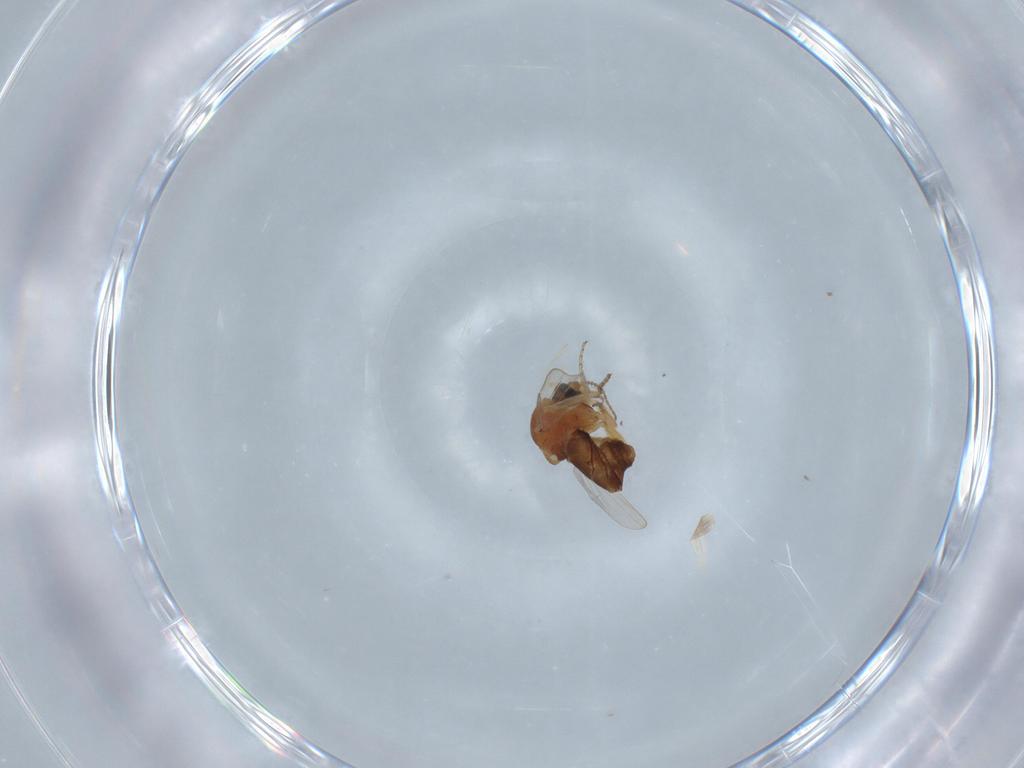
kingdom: Animalia
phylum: Arthropoda
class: Insecta
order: Diptera
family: Ceratopogonidae
